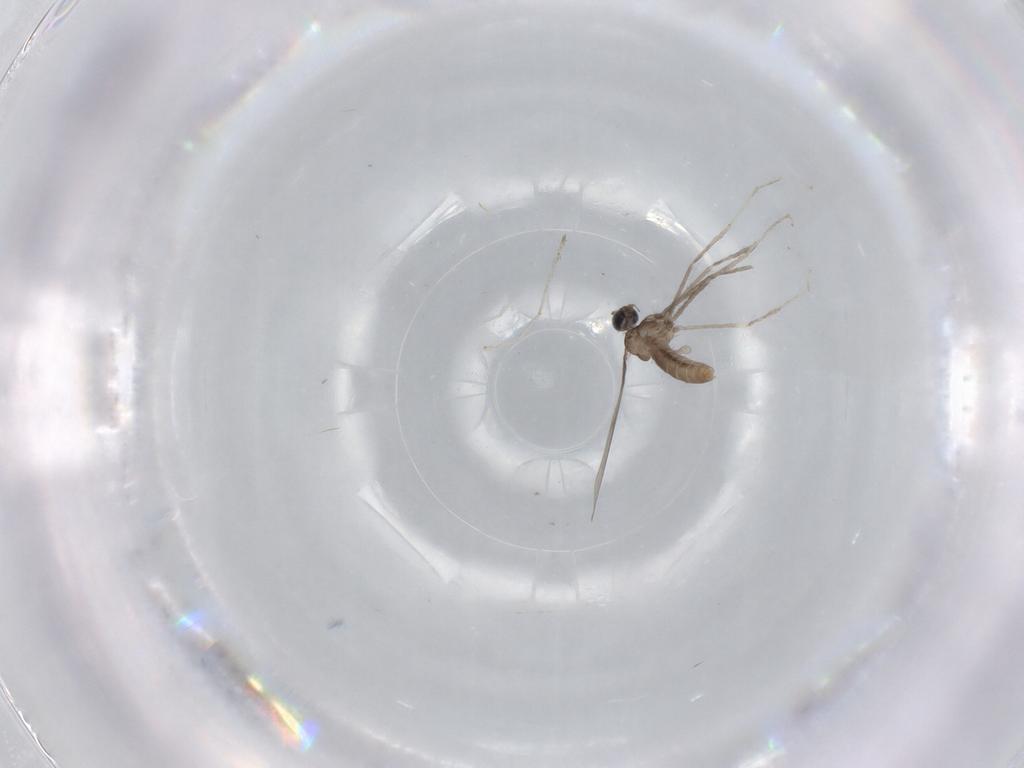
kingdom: Animalia
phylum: Arthropoda
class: Insecta
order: Diptera
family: Cecidomyiidae
